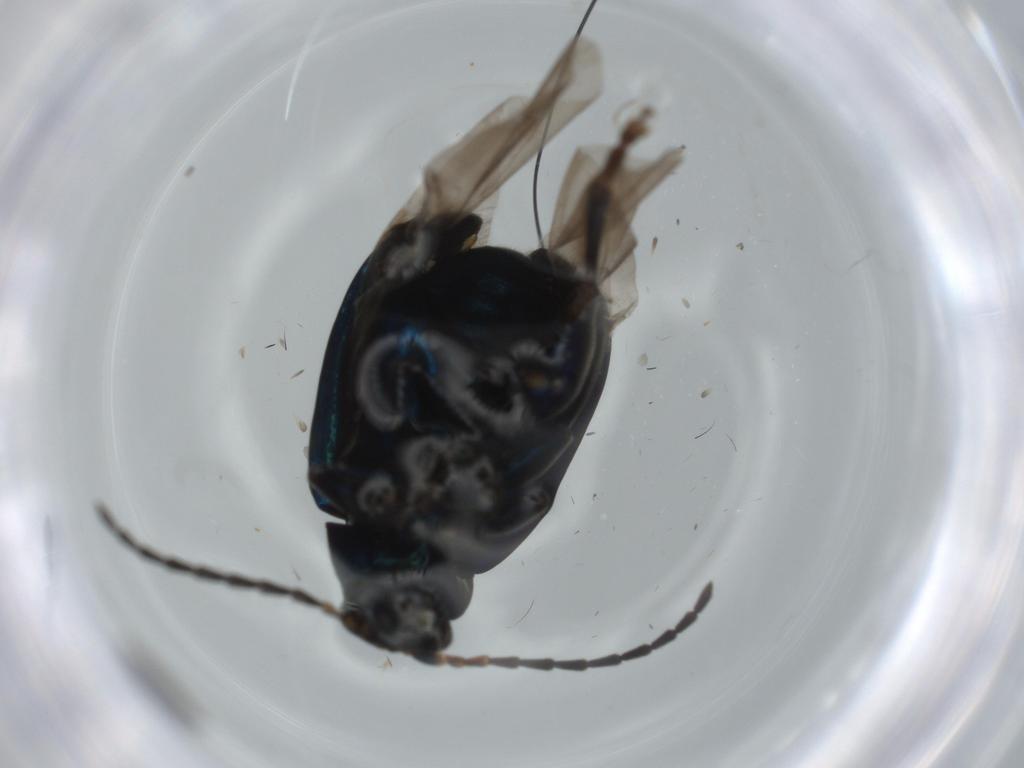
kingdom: Animalia
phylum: Arthropoda
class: Insecta
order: Coleoptera
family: Chrysomelidae
